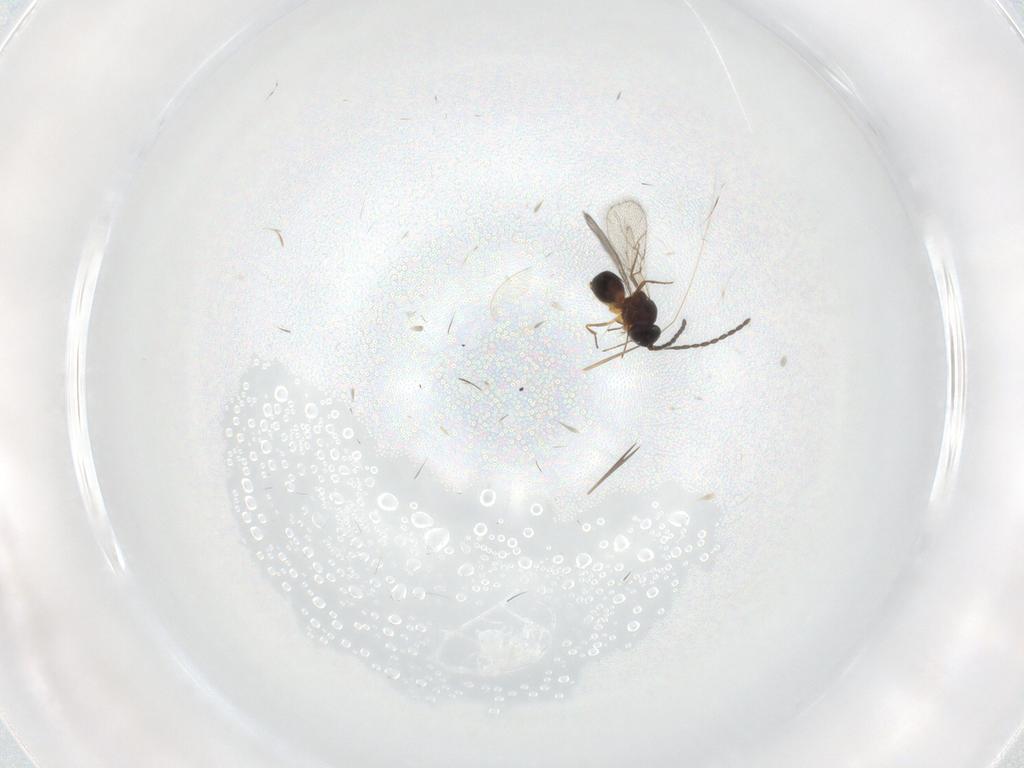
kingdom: Animalia
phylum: Arthropoda
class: Insecta
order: Hymenoptera
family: Figitidae
